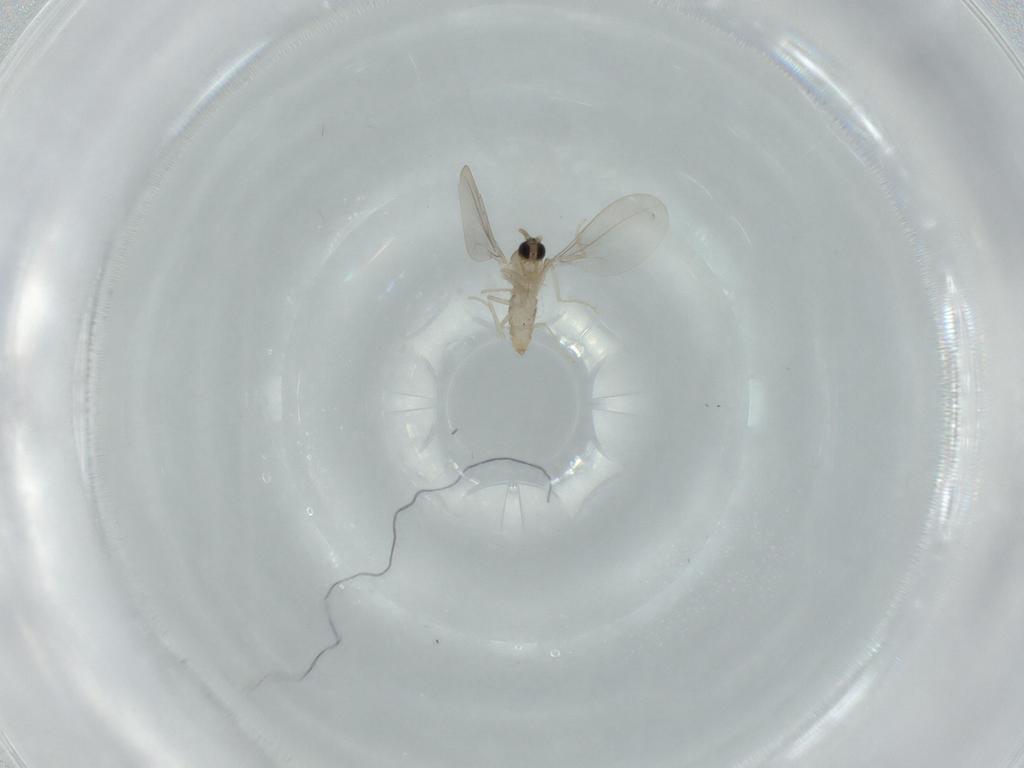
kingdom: Animalia
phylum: Arthropoda
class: Insecta
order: Diptera
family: Cecidomyiidae
